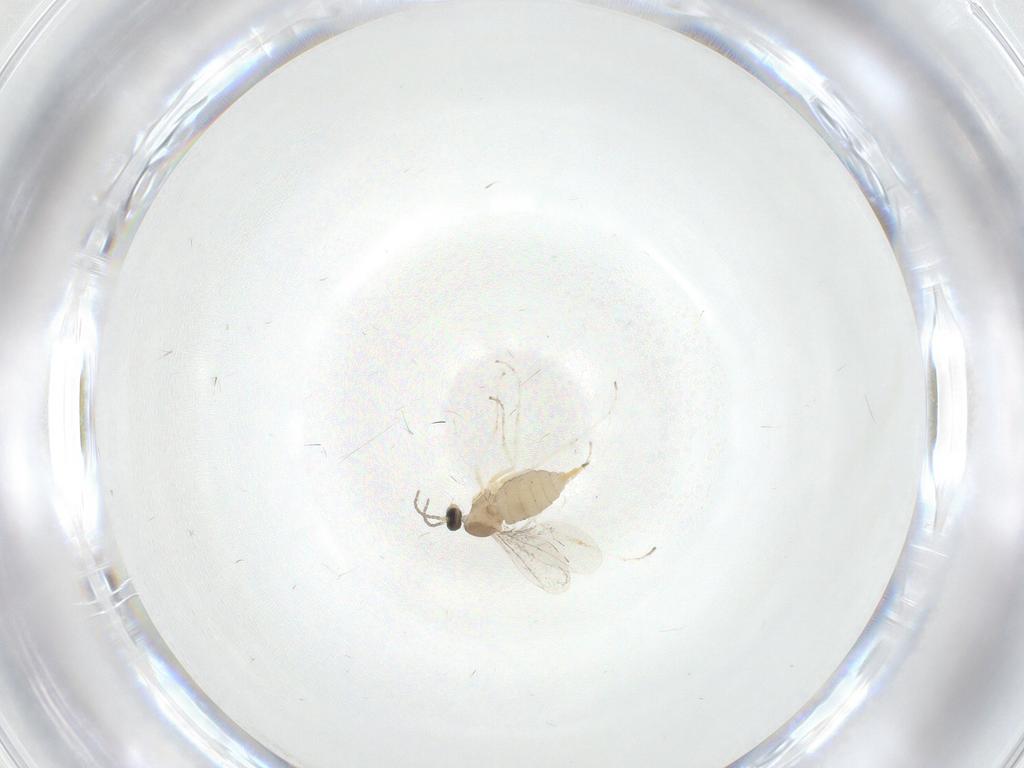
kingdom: Animalia
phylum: Arthropoda
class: Insecta
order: Diptera
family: Cecidomyiidae
